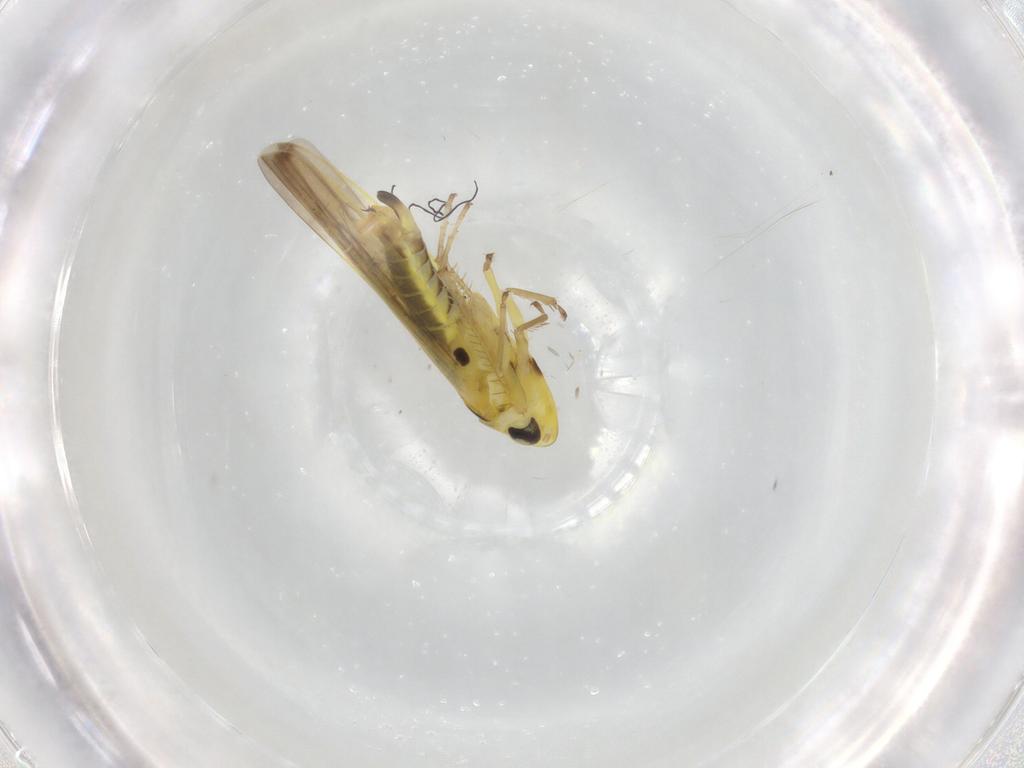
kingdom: Animalia
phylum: Arthropoda
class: Insecta
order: Hemiptera
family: Cicadellidae
